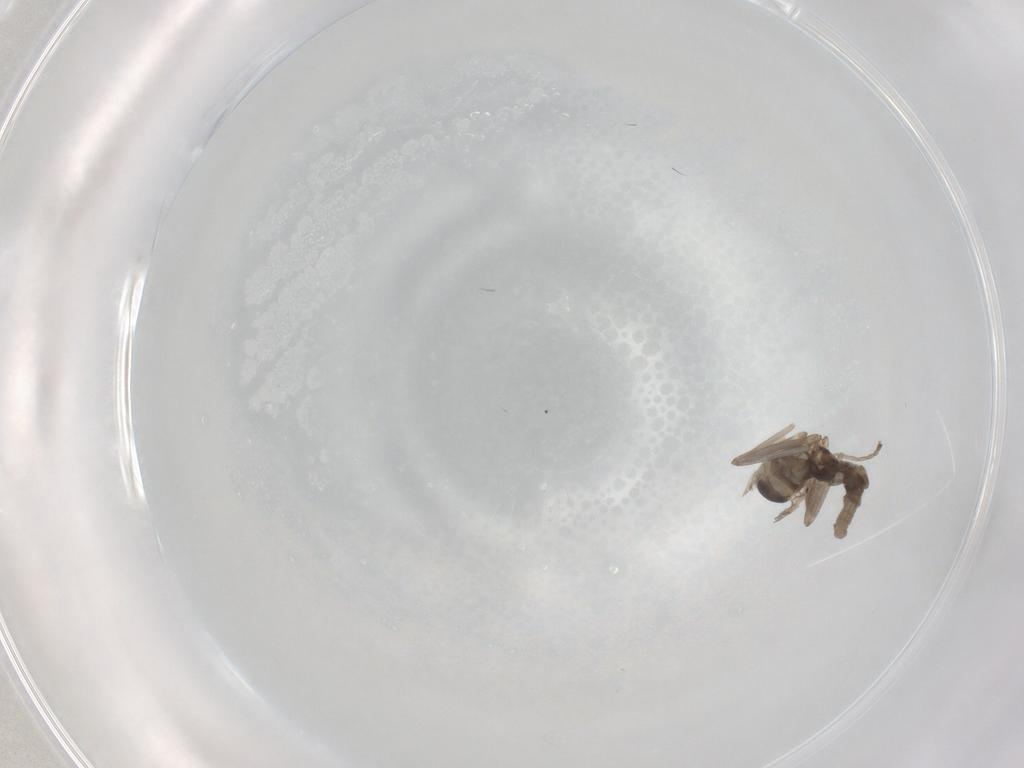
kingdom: Animalia
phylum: Arthropoda
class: Insecta
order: Diptera
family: Cecidomyiidae
